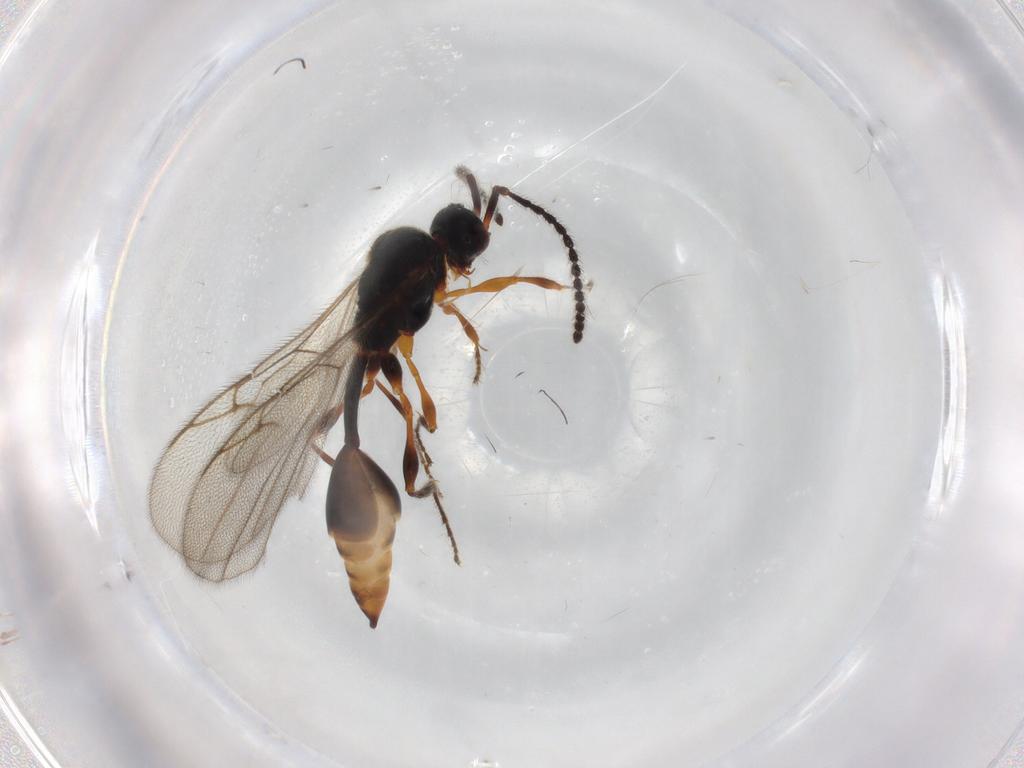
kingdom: Animalia
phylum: Arthropoda
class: Insecta
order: Hymenoptera
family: Diapriidae
